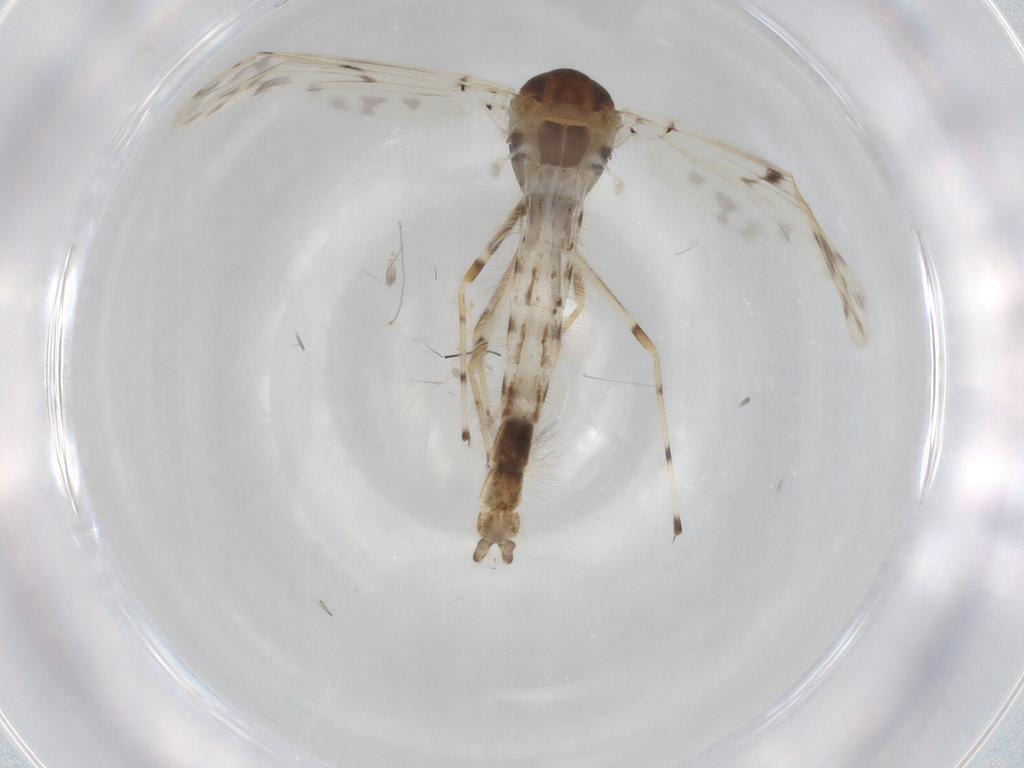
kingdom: Animalia
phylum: Arthropoda
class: Insecta
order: Diptera
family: Chironomidae
